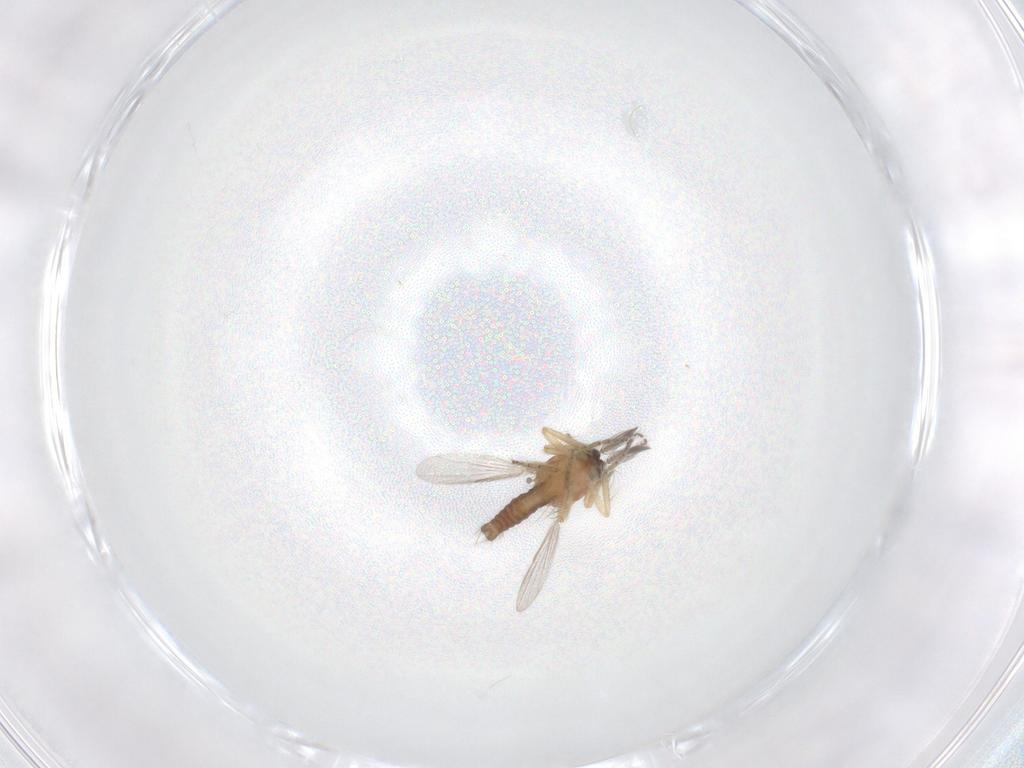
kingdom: Animalia
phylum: Arthropoda
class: Insecta
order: Diptera
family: Ceratopogonidae
